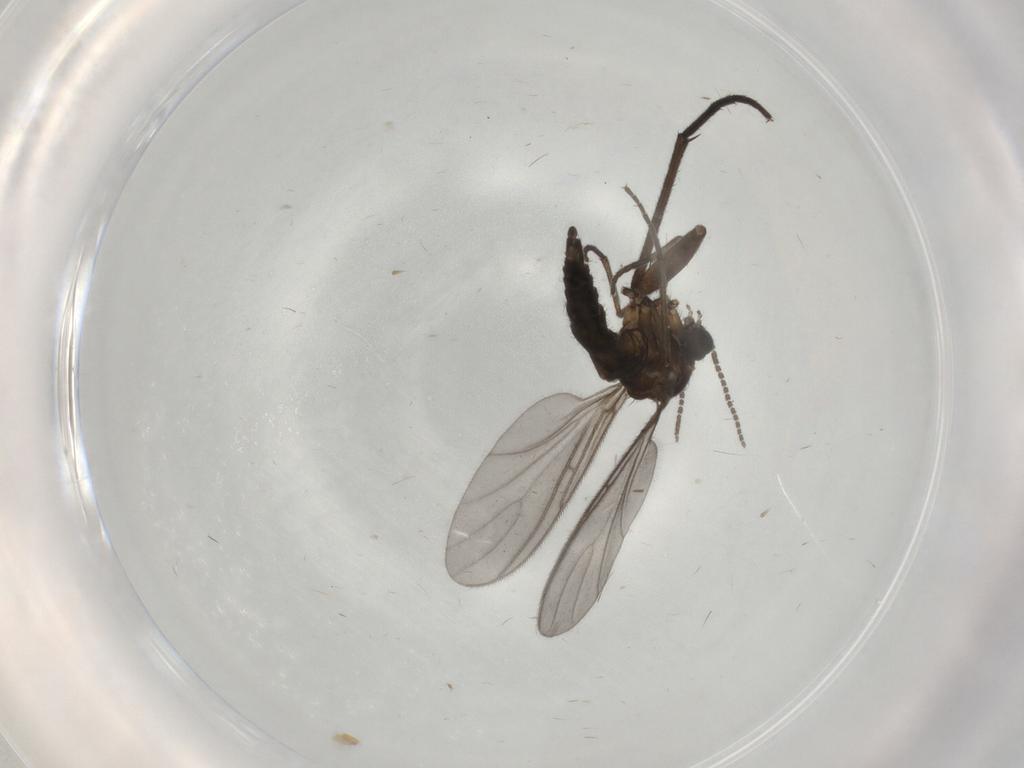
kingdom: Animalia
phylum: Arthropoda
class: Insecta
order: Diptera
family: Sciaridae
